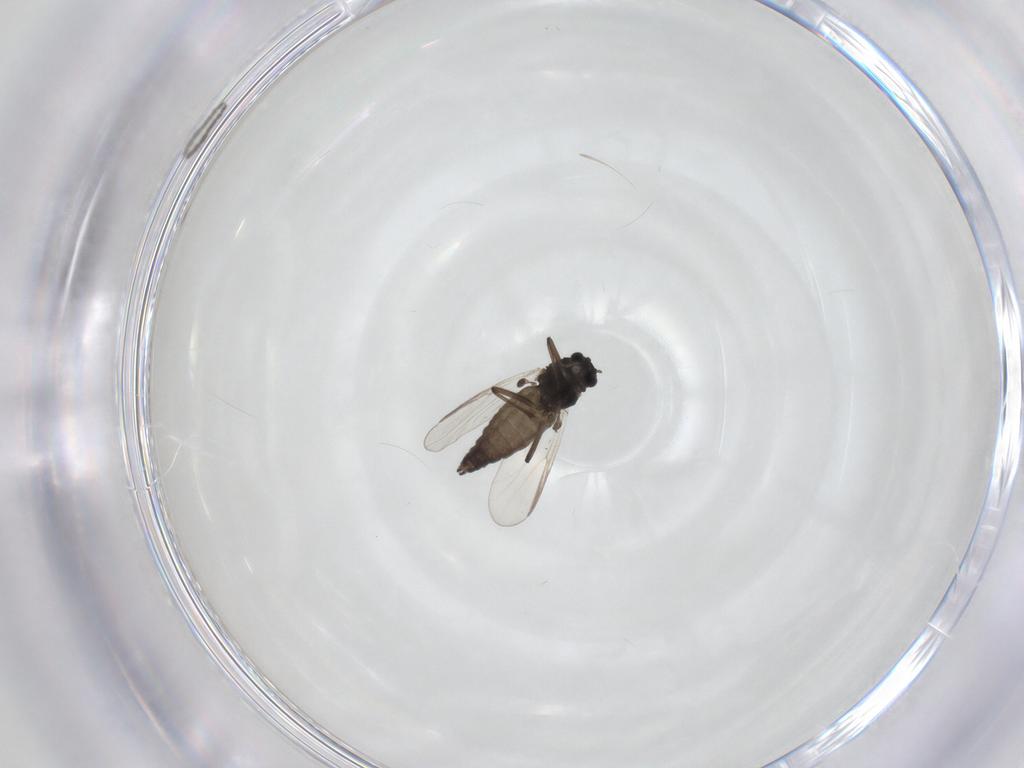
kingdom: Animalia
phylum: Arthropoda
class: Insecta
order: Diptera
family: Chironomidae
